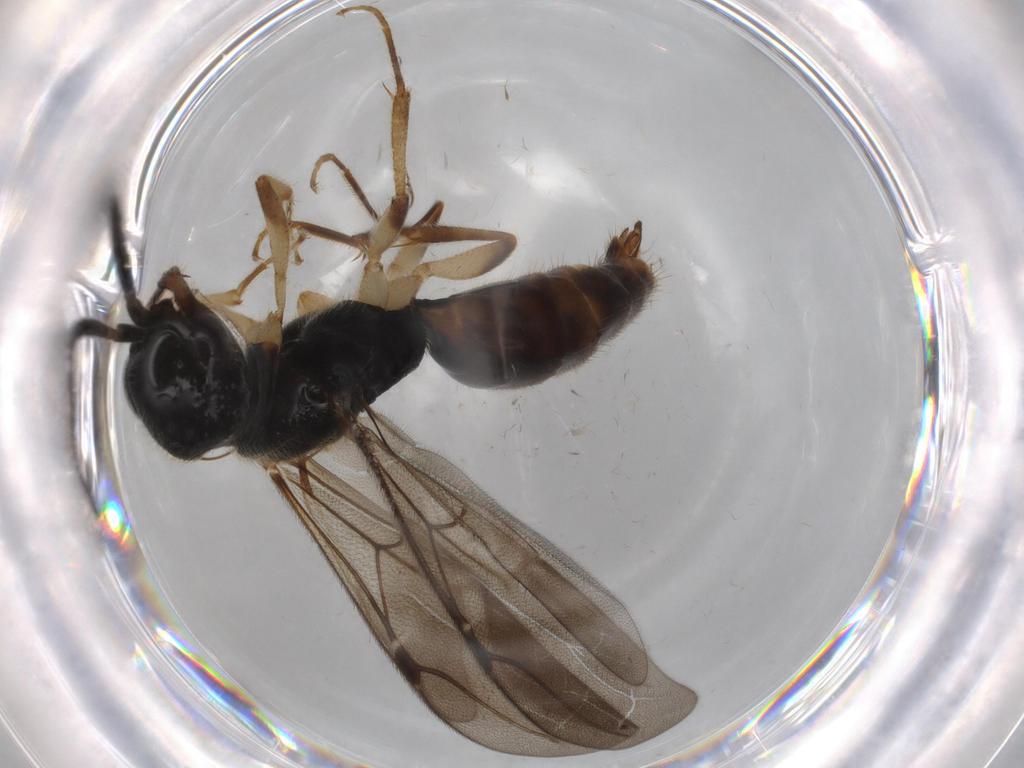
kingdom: Animalia
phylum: Arthropoda
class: Insecta
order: Hymenoptera
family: Bethylidae
